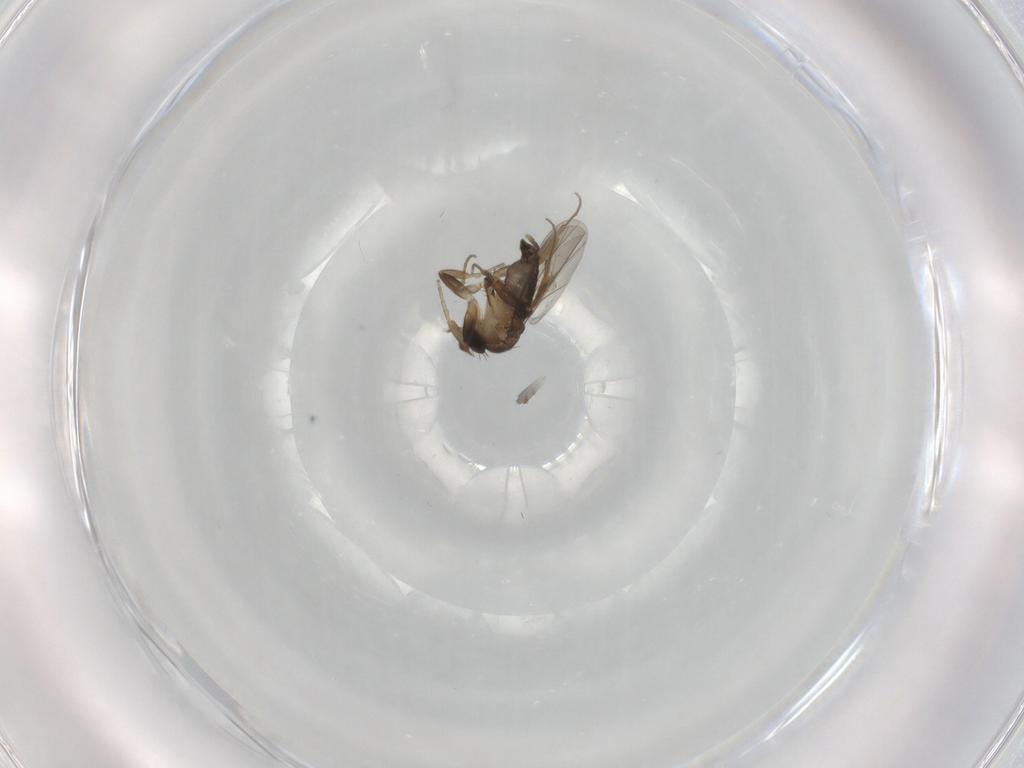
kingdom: Animalia
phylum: Arthropoda
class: Insecta
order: Diptera
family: Phoridae
